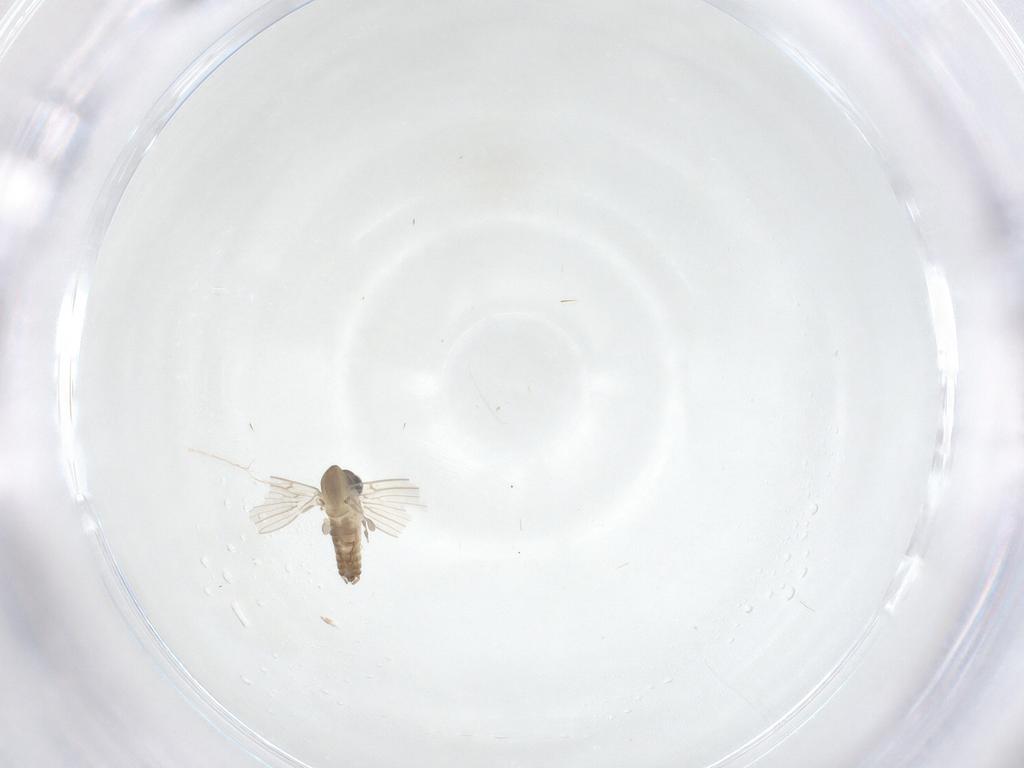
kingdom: Animalia
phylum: Arthropoda
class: Insecta
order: Diptera
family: Psychodidae
